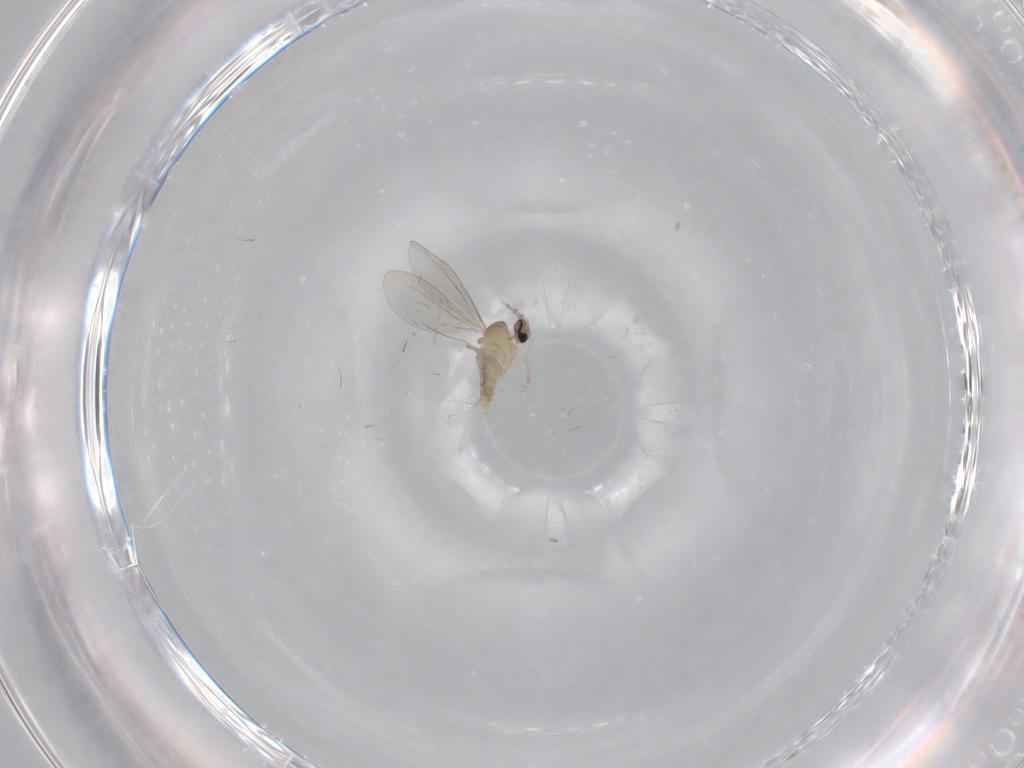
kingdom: Animalia
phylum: Arthropoda
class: Insecta
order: Diptera
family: Cecidomyiidae
